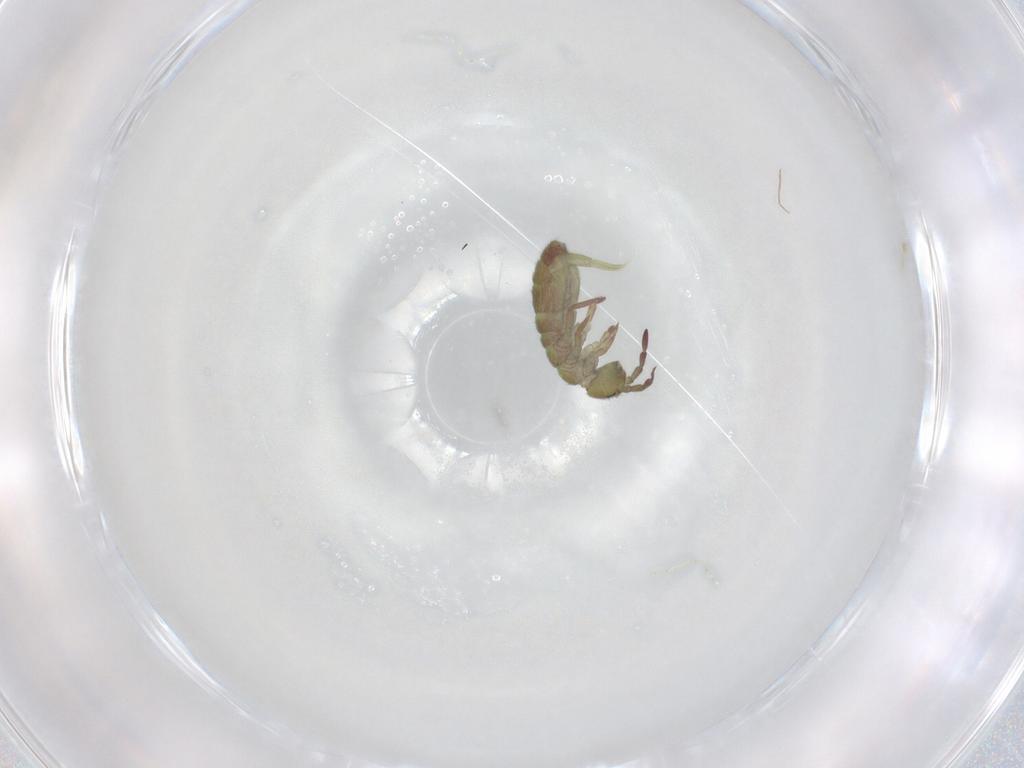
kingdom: Animalia
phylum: Arthropoda
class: Collembola
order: Entomobryomorpha
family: Isotomidae
